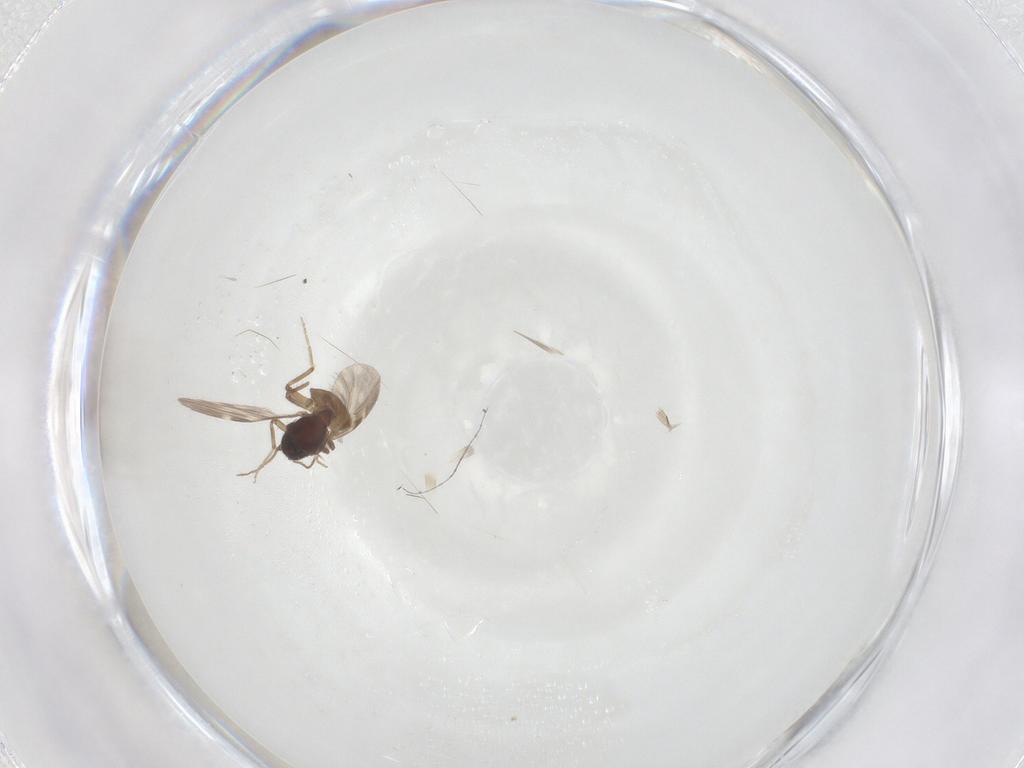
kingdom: Animalia
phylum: Arthropoda
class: Insecta
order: Diptera
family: Ceratopogonidae
